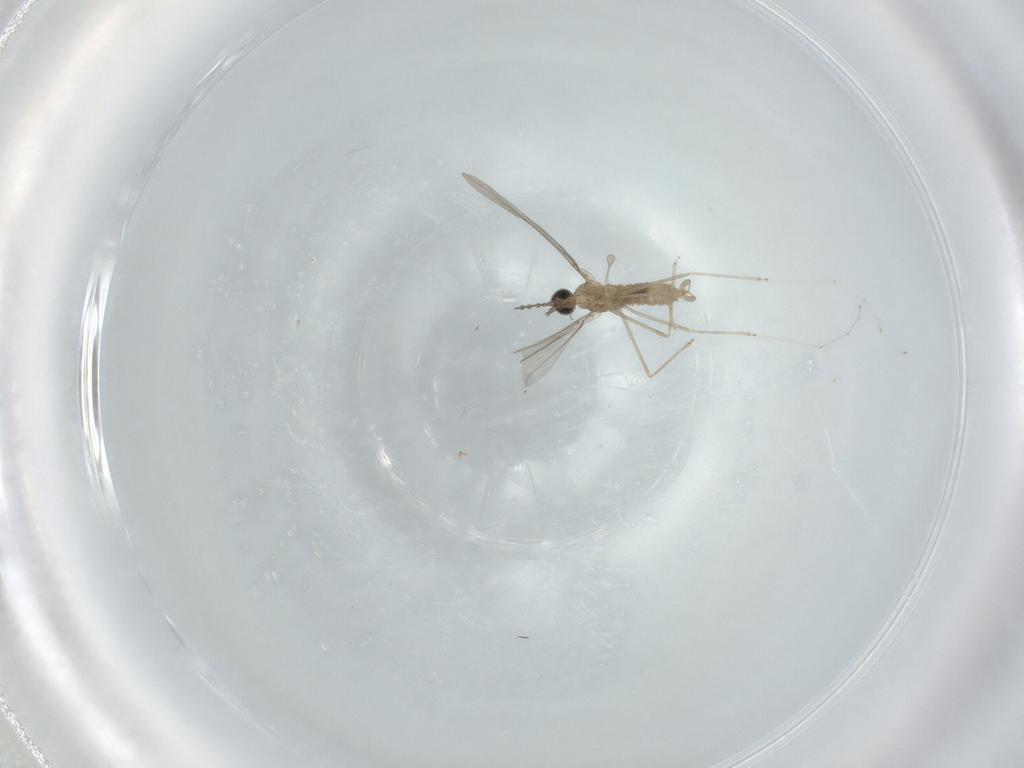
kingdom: Animalia
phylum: Arthropoda
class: Insecta
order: Diptera
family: Cecidomyiidae
